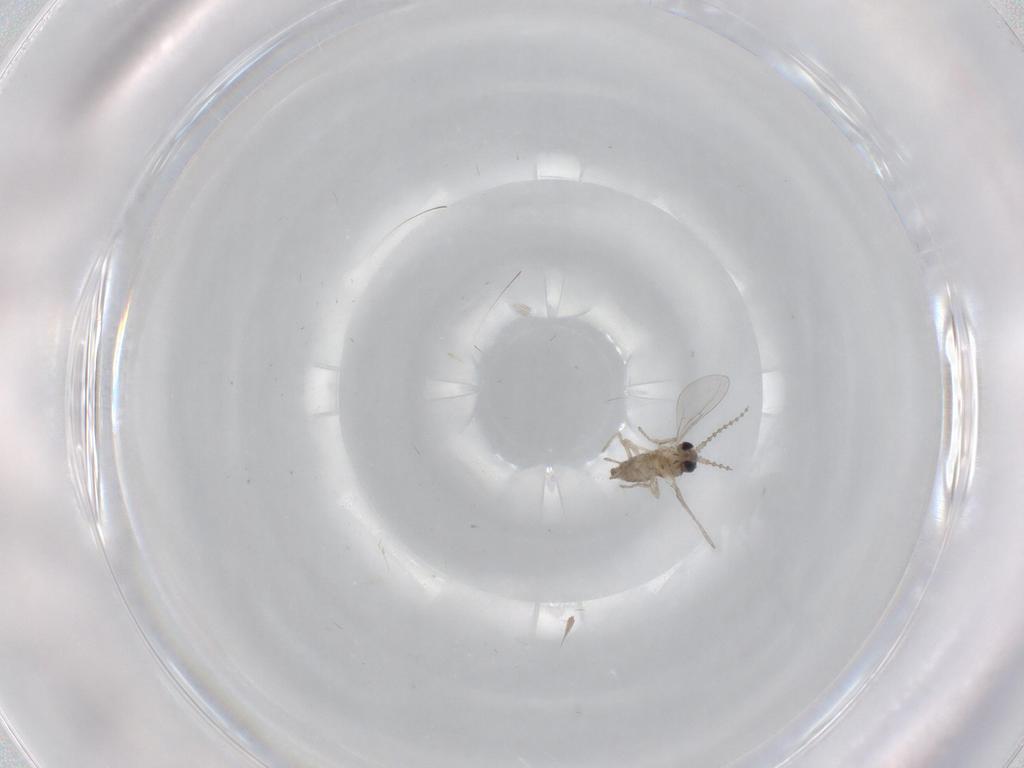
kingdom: Animalia
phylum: Arthropoda
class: Insecta
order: Diptera
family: Cecidomyiidae
